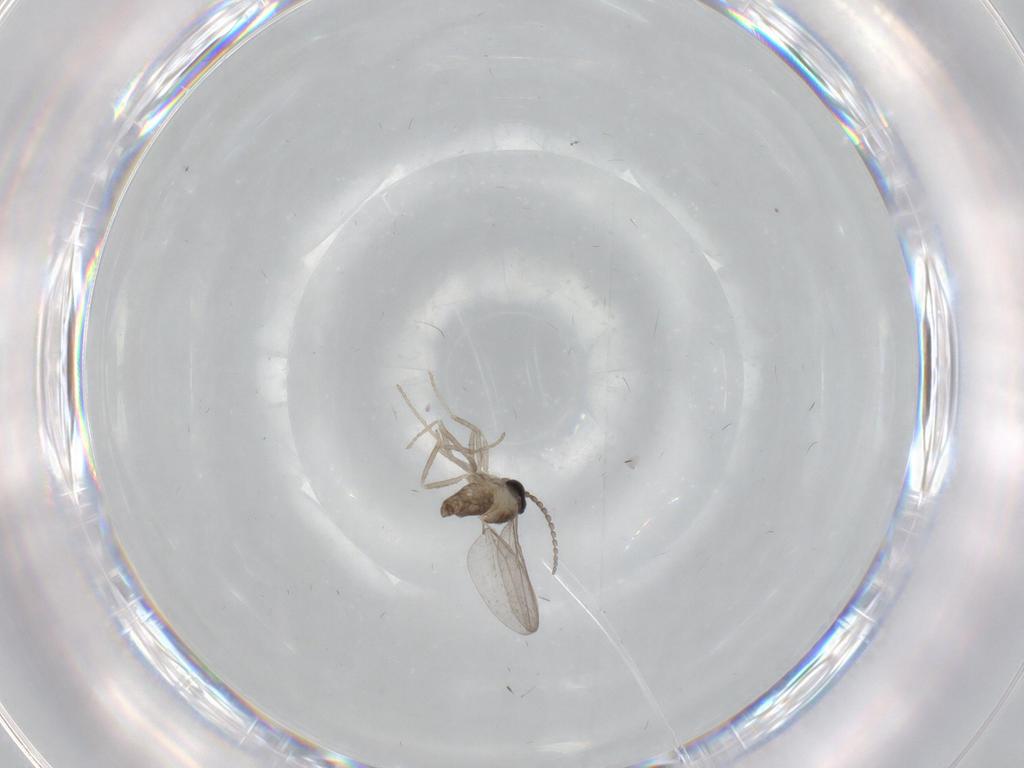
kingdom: Animalia
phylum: Arthropoda
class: Insecta
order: Diptera
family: Cecidomyiidae
